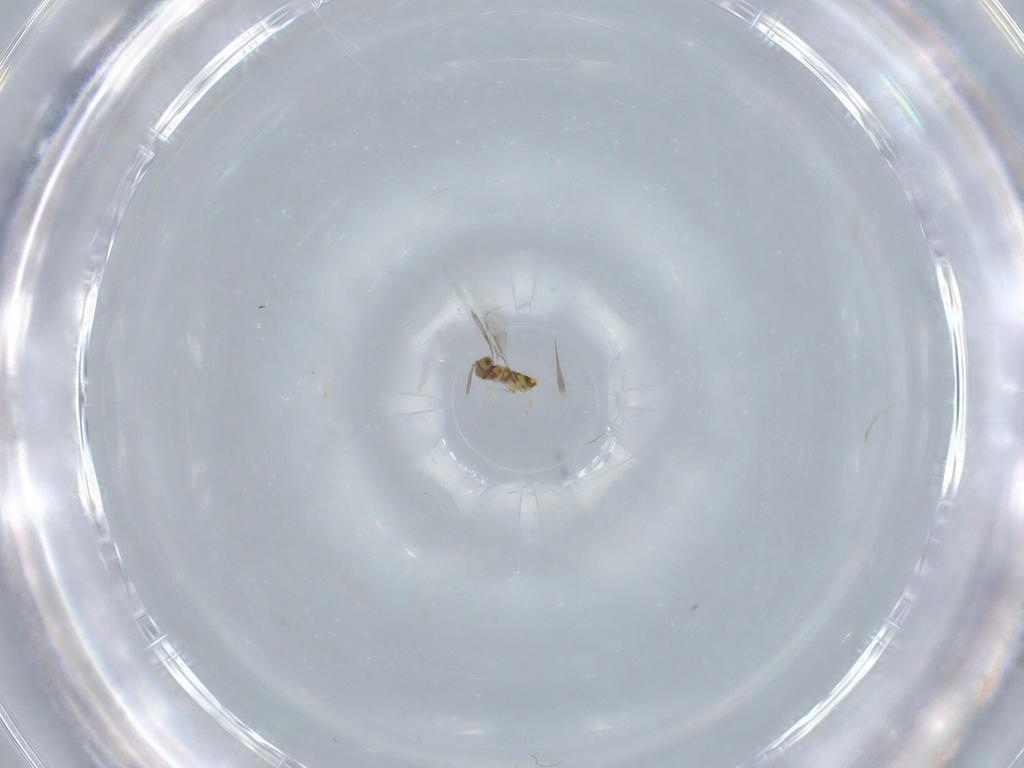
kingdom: Animalia
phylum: Arthropoda
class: Insecta
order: Hymenoptera
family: Aphelinidae
